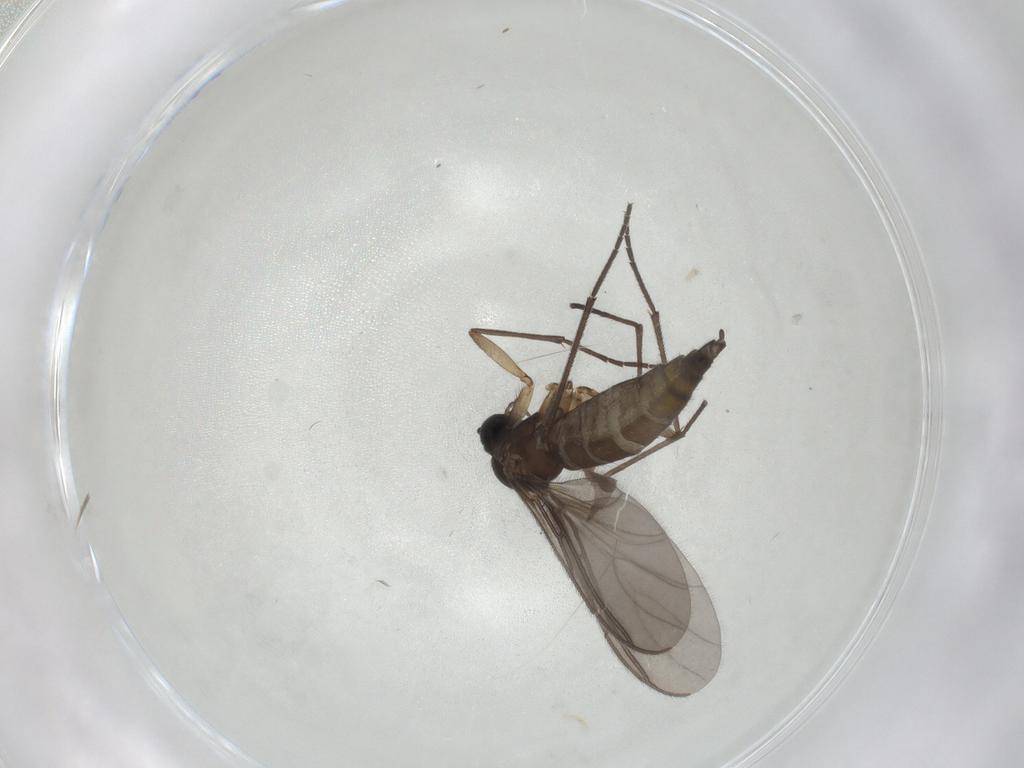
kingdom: Animalia
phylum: Arthropoda
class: Insecta
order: Diptera
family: Sciaridae
